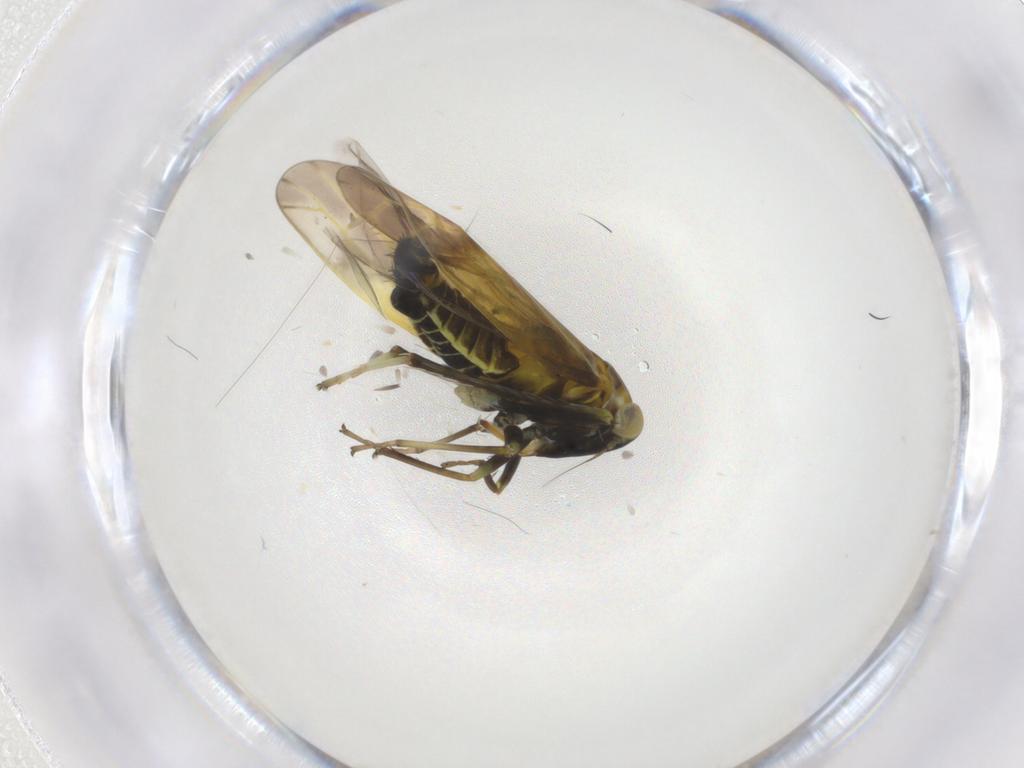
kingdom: Animalia
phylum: Arthropoda
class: Insecta
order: Hemiptera
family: Cicadellidae
